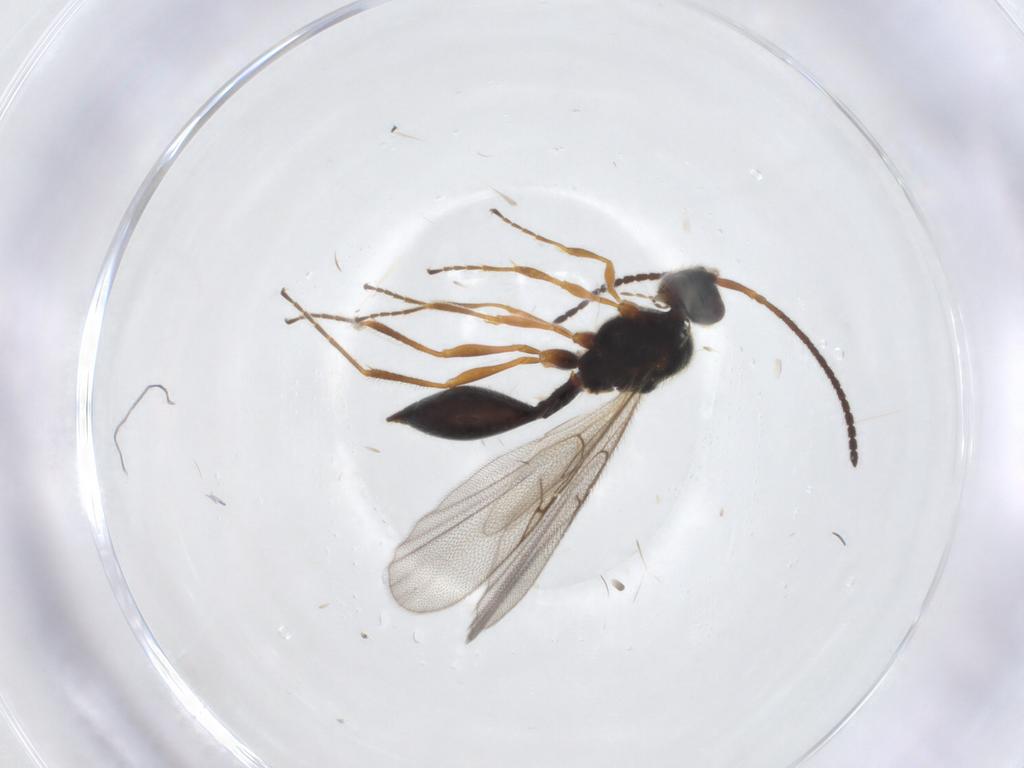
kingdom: Animalia
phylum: Arthropoda
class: Insecta
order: Hymenoptera
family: Diapriidae
